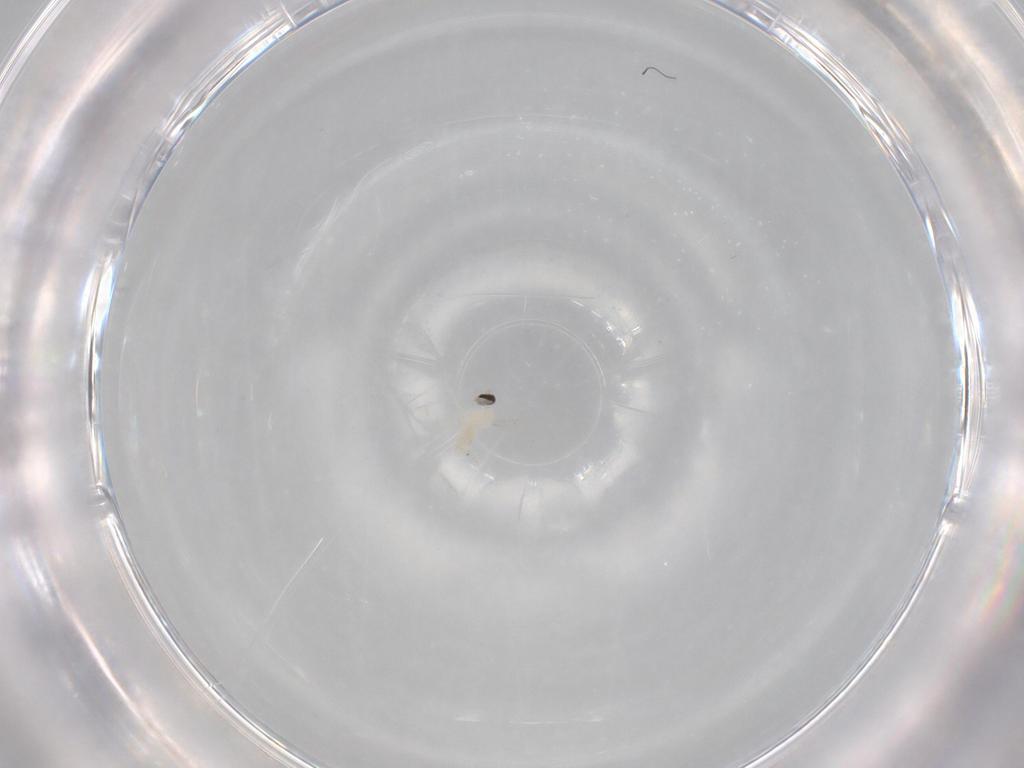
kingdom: Animalia
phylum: Arthropoda
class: Insecta
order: Diptera
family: Cecidomyiidae
